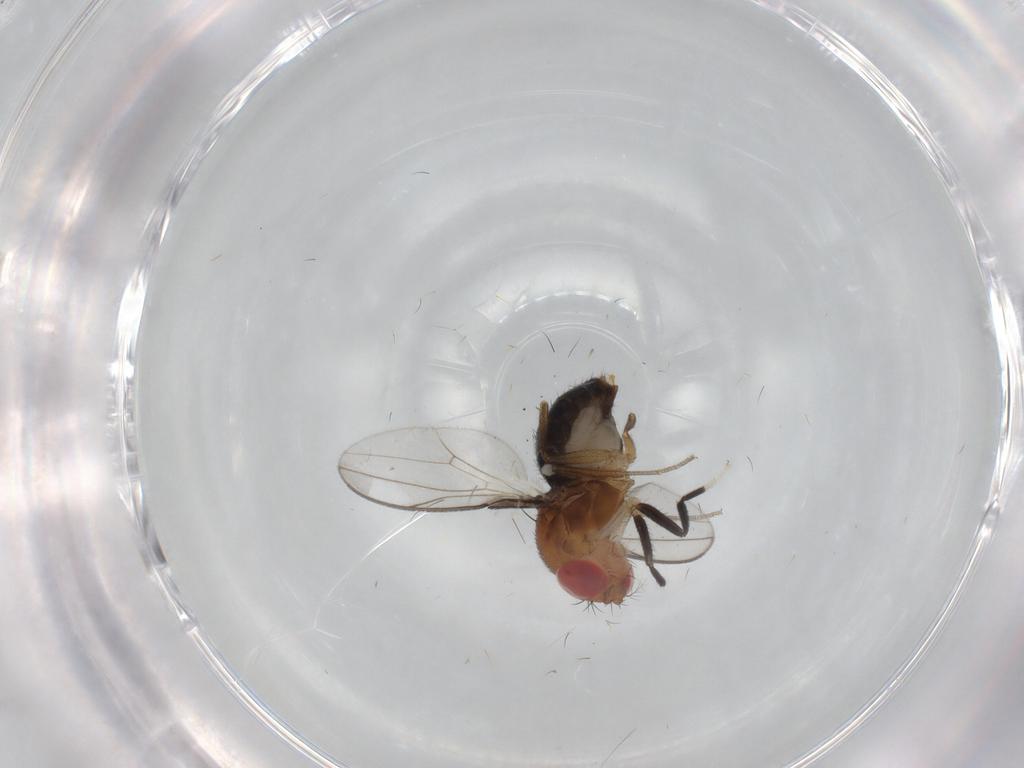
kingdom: Animalia
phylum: Arthropoda
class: Insecta
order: Diptera
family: Drosophilidae
